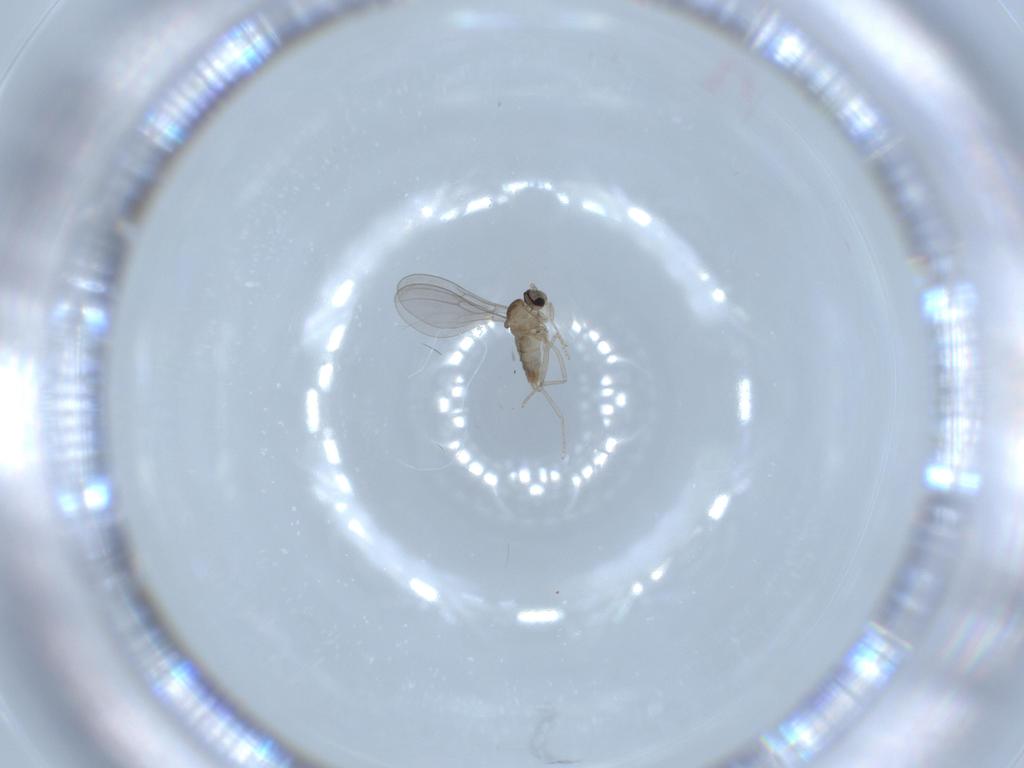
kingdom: Animalia
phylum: Arthropoda
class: Insecta
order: Diptera
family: Cecidomyiidae
